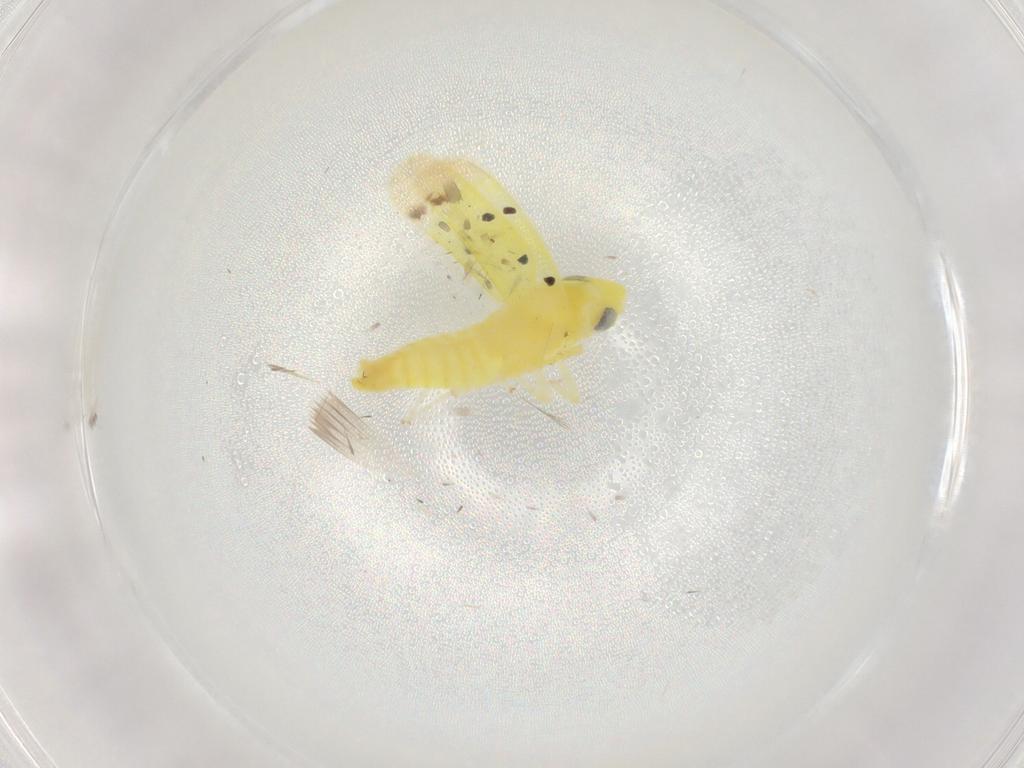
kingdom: Animalia
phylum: Arthropoda
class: Insecta
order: Hemiptera
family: Cicadellidae
